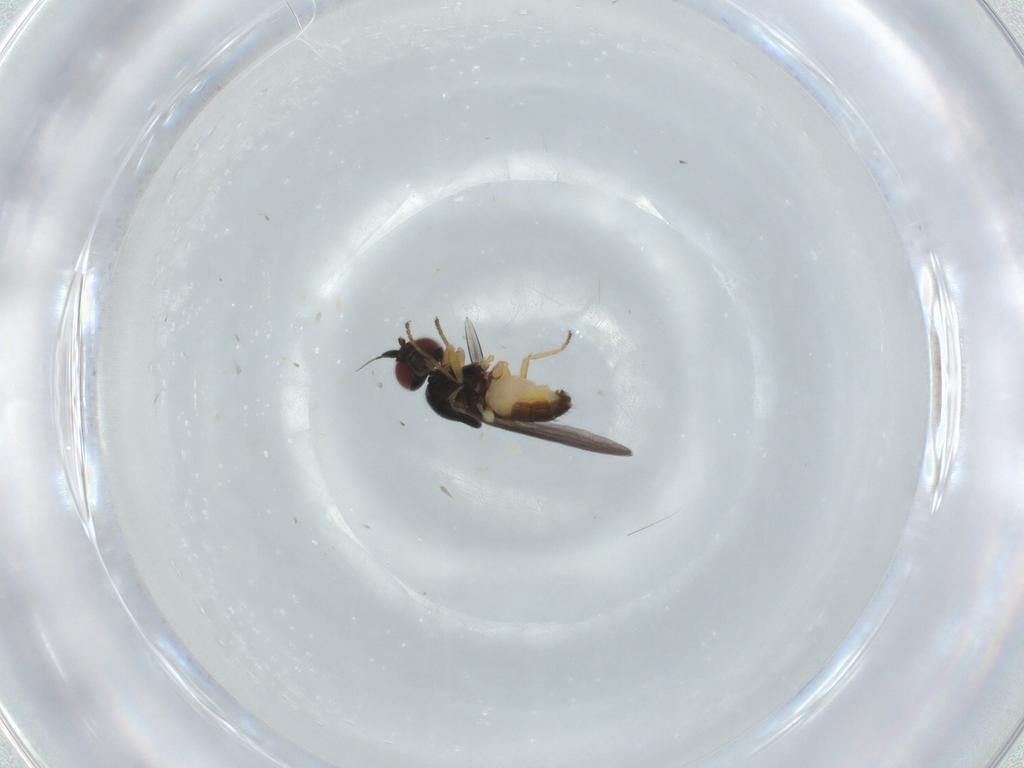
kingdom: Animalia
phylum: Arthropoda
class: Insecta
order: Diptera
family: Chloropidae
